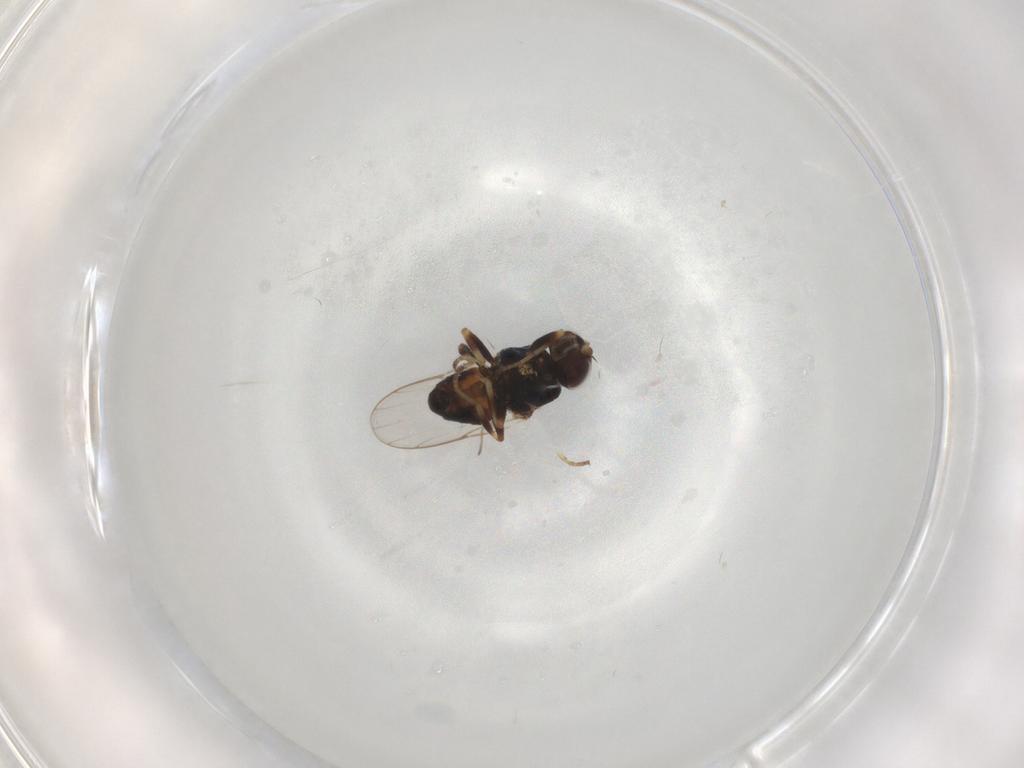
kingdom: Animalia
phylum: Arthropoda
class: Insecta
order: Diptera
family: Chloropidae
